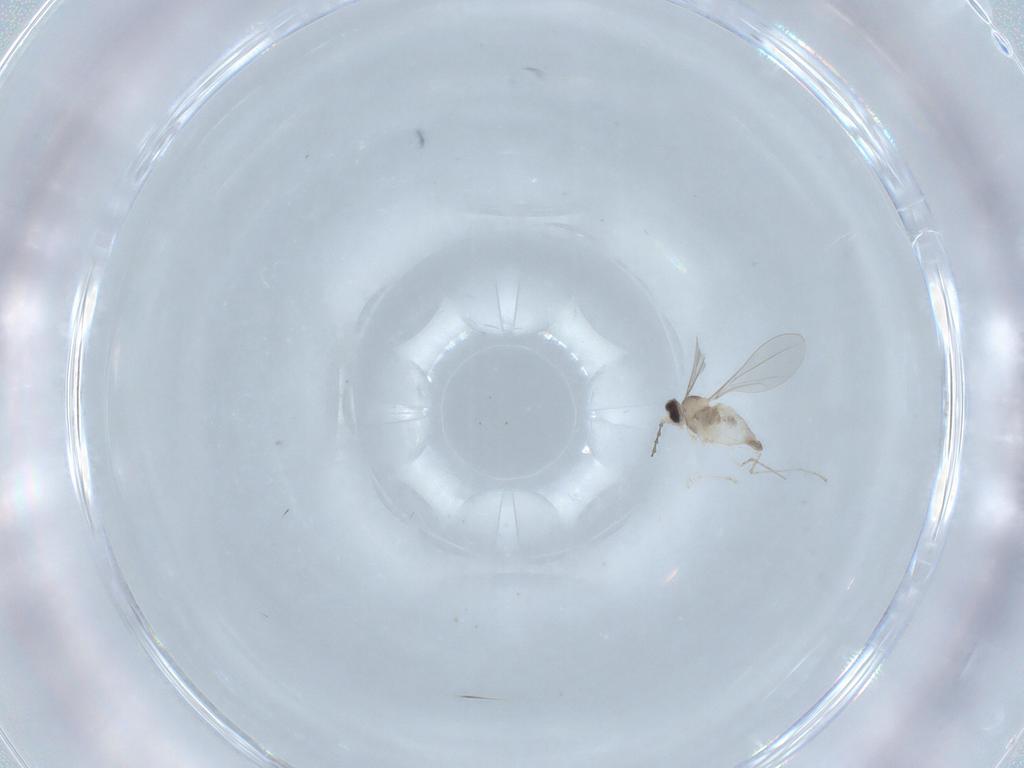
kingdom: Animalia
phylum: Arthropoda
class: Insecta
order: Diptera
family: Cecidomyiidae
